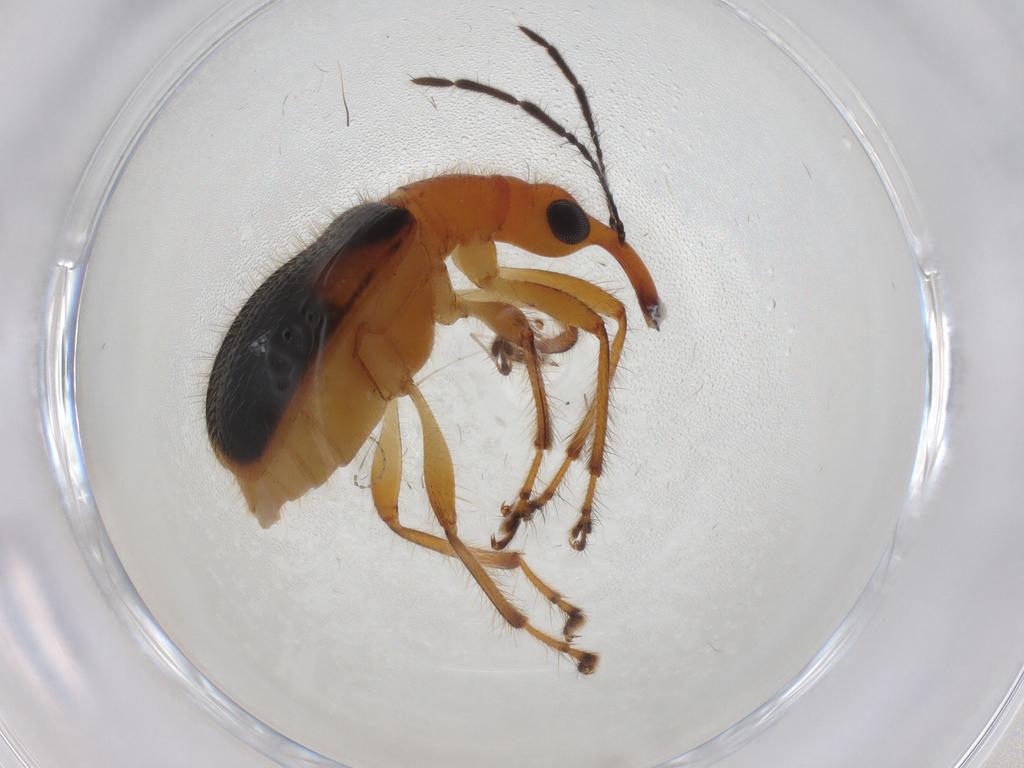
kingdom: Animalia
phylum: Arthropoda
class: Insecta
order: Coleoptera
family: Attelabidae
